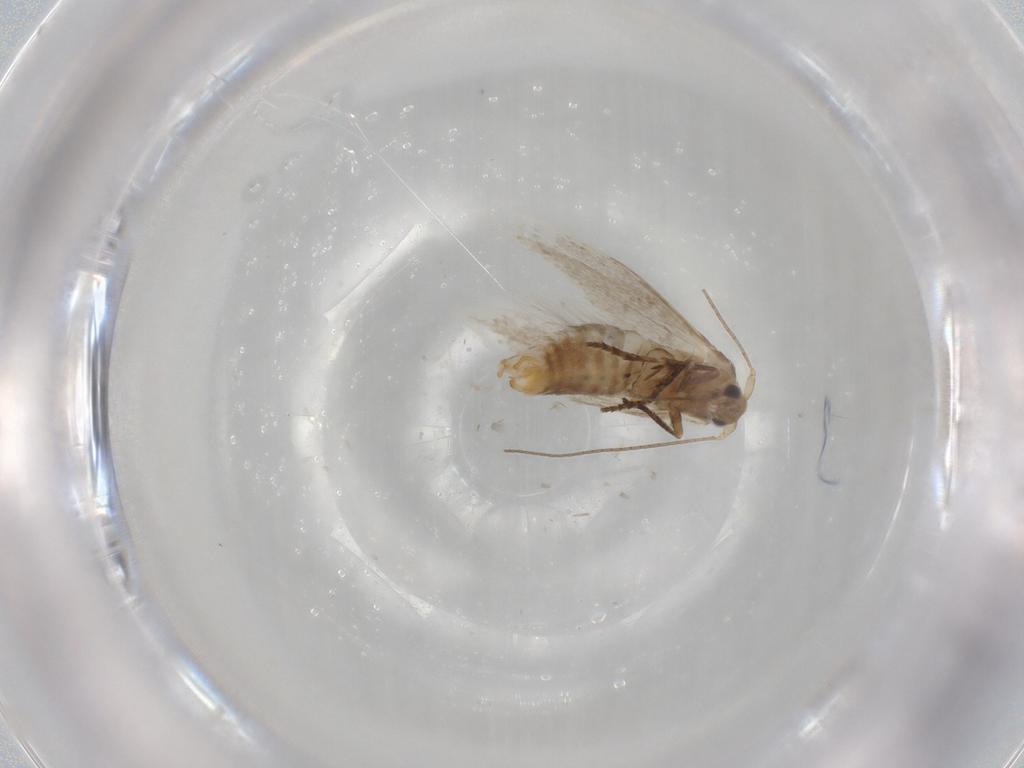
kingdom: Animalia
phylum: Arthropoda
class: Insecta
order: Lepidoptera
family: Bucculatricidae
